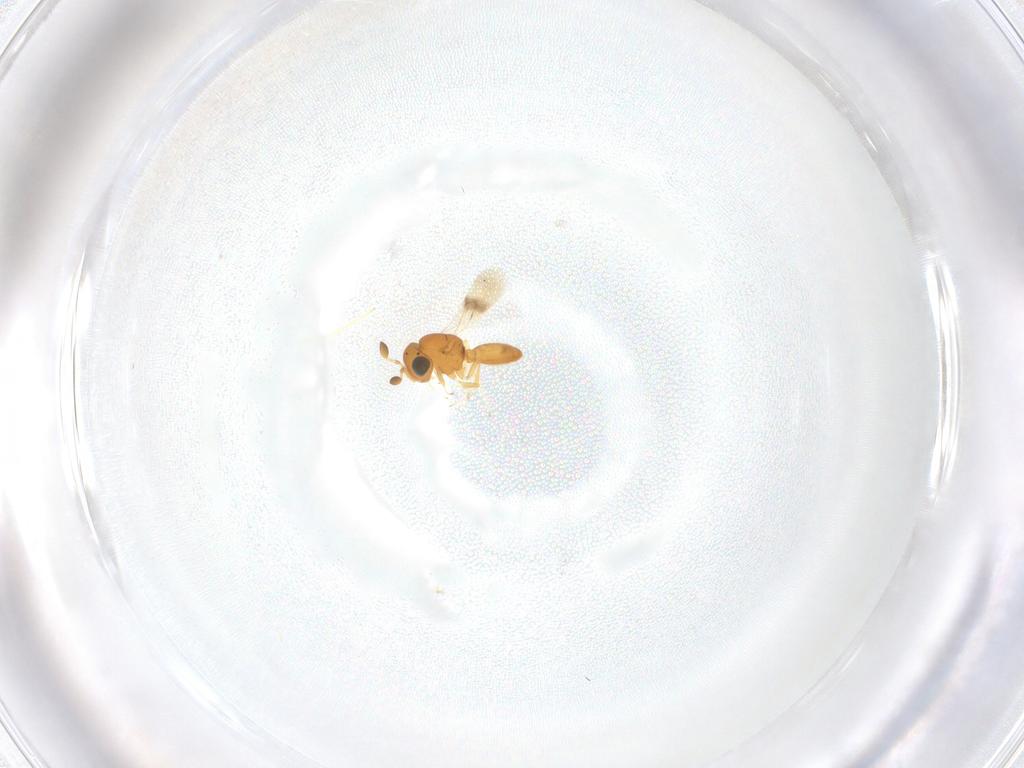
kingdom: Animalia
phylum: Arthropoda
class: Insecta
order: Hymenoptera
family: Scelionidae
